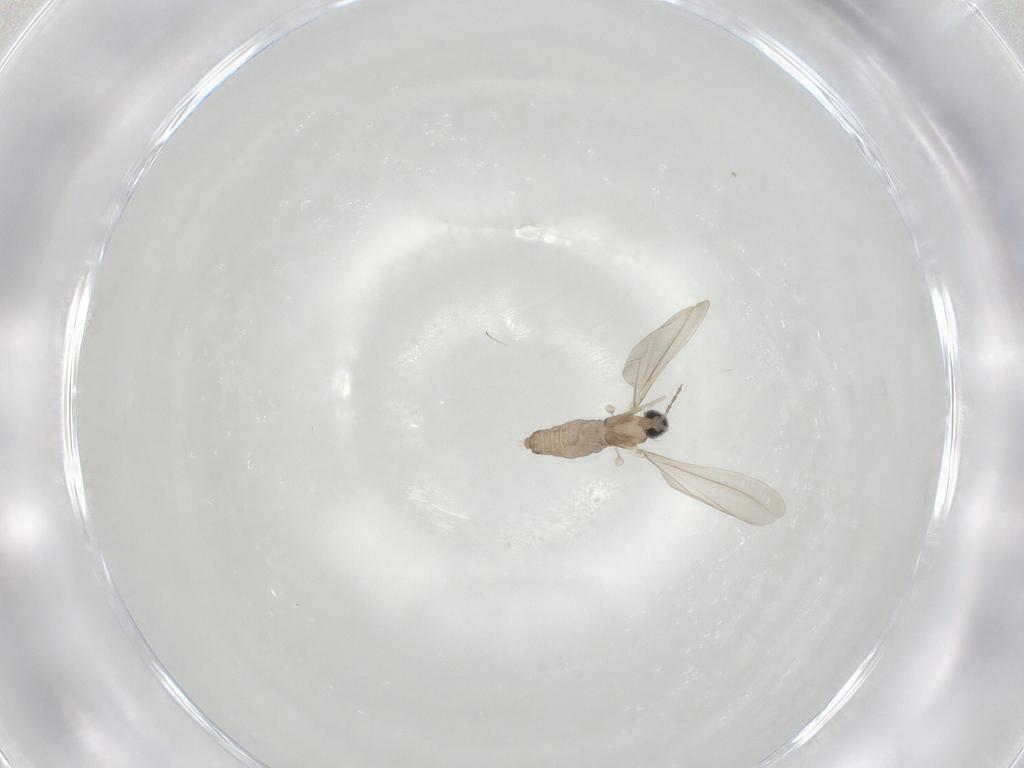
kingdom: Animalia
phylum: Arthropoda
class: Insecta
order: Diptera
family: Cecidomyiidae
